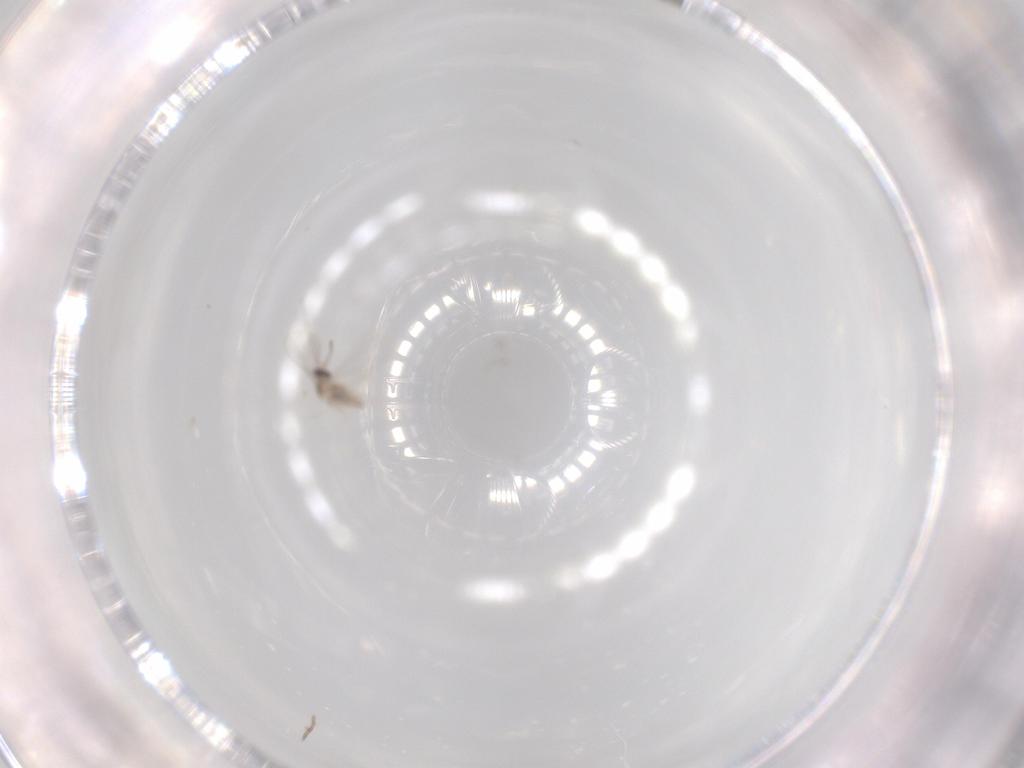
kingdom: Animalia
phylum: Arthropoda
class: Insecta
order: Diptera
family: Cecidomyiidae
